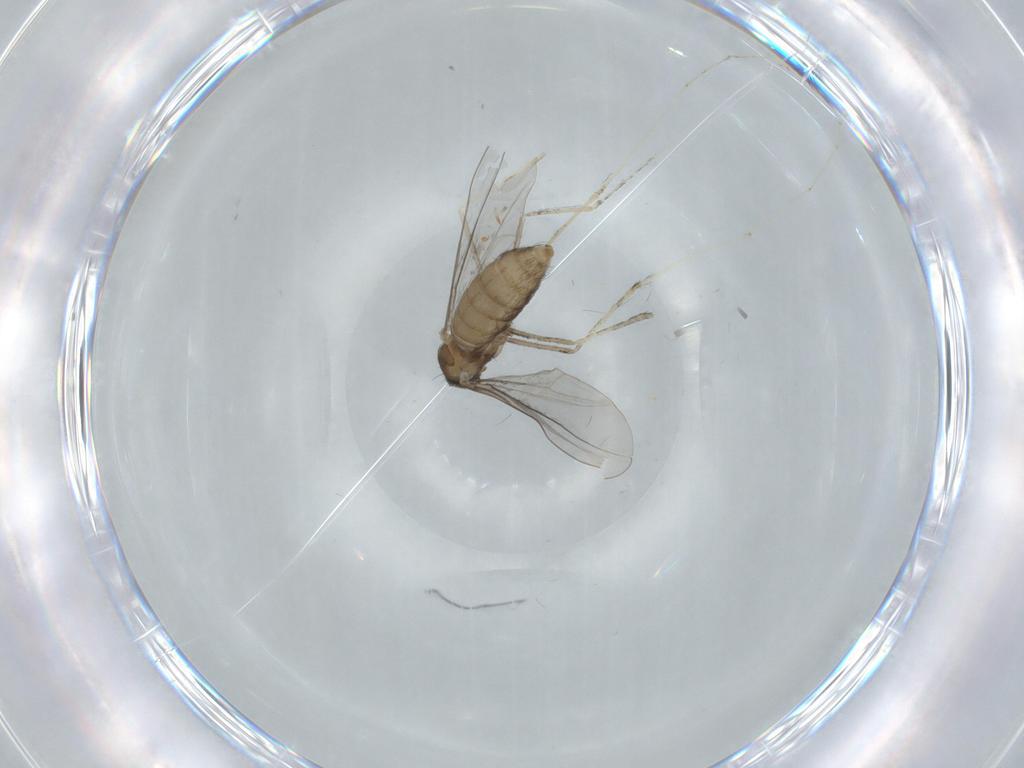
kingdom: Animalia
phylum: Arthropoda
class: Insecta
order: Diptera
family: Cecidomyiidae
